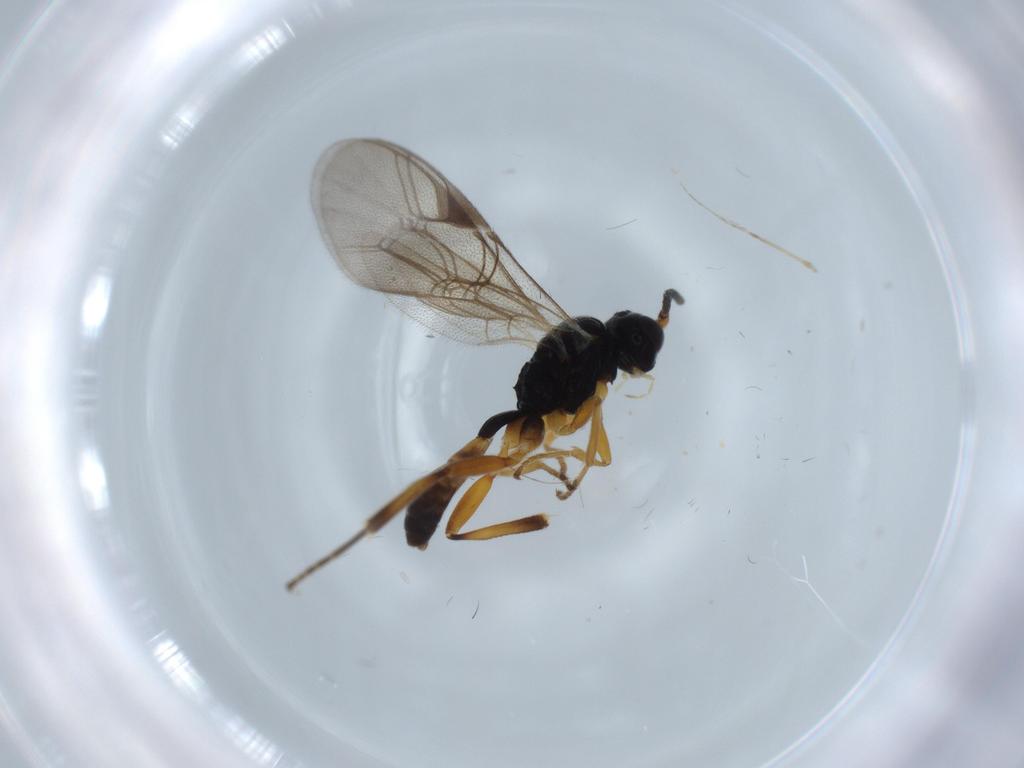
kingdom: Animalia
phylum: Arthropoda
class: Insecta
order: Hymenoptera
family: Ichneumonidae
